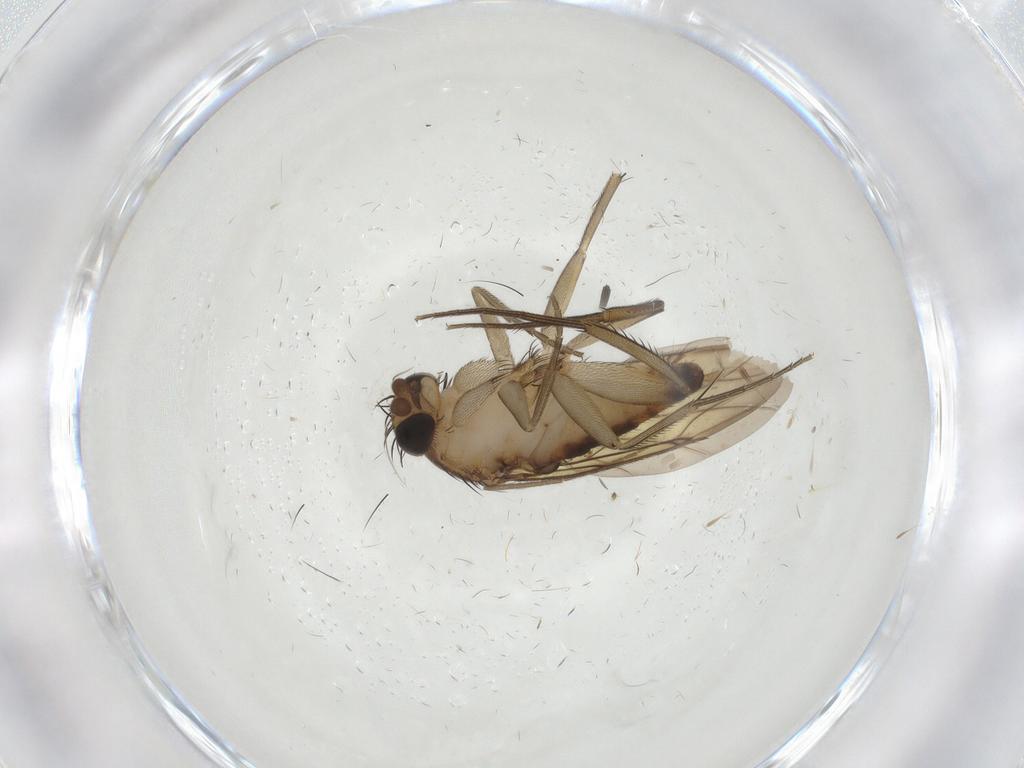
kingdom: Animalia
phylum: Arthropoda
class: Insecta
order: Diptera
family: Phoridae
